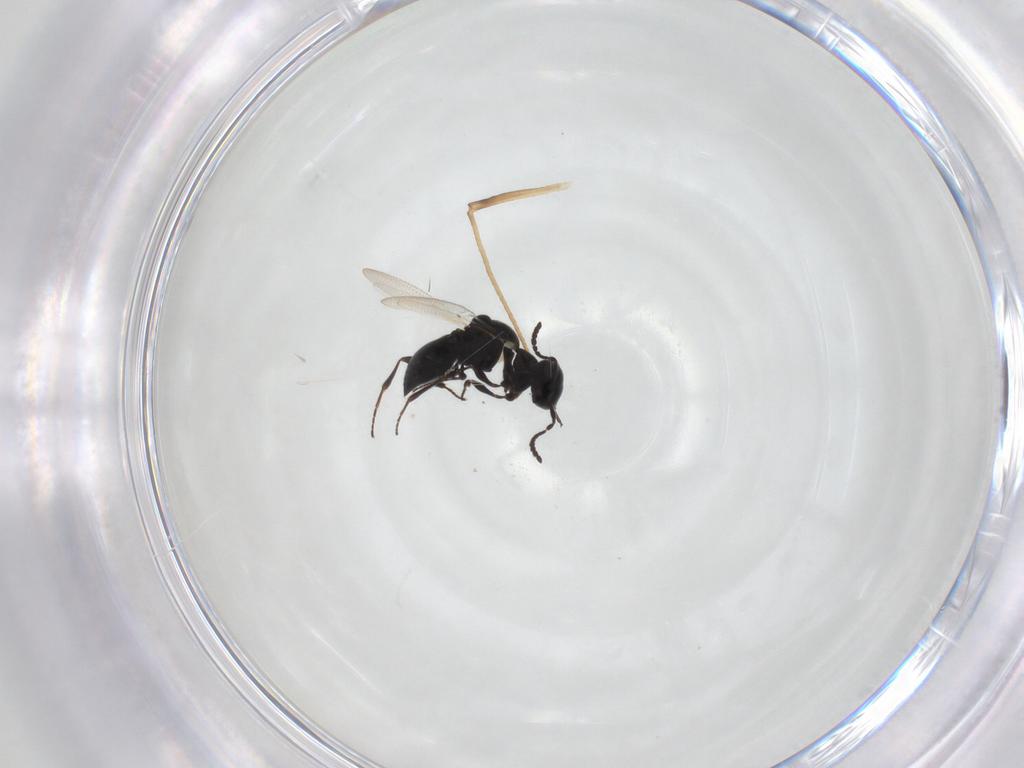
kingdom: Animalia
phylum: Arthropoda
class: Insecta
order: Hymenoptera
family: Platygastridae
